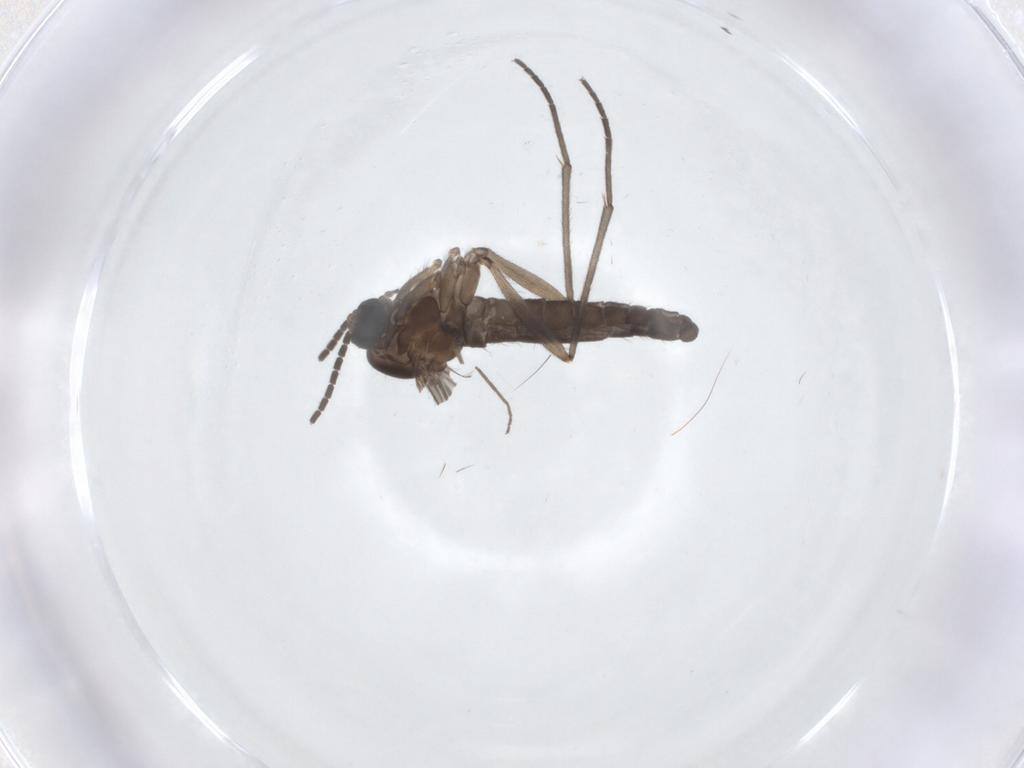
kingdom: Animalia
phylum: Arthropoda
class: Insecta
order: Diptera
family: Sciaridae
